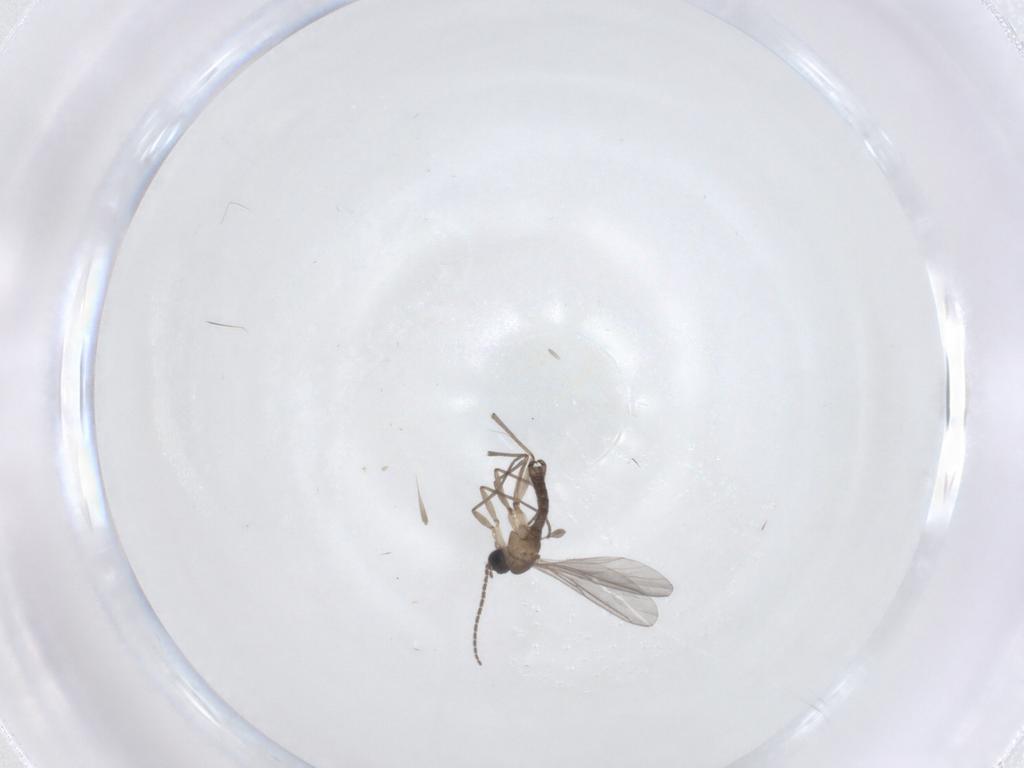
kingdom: Animalia
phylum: Arthropoda
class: Insecta
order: Diptera
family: Sciaridae
